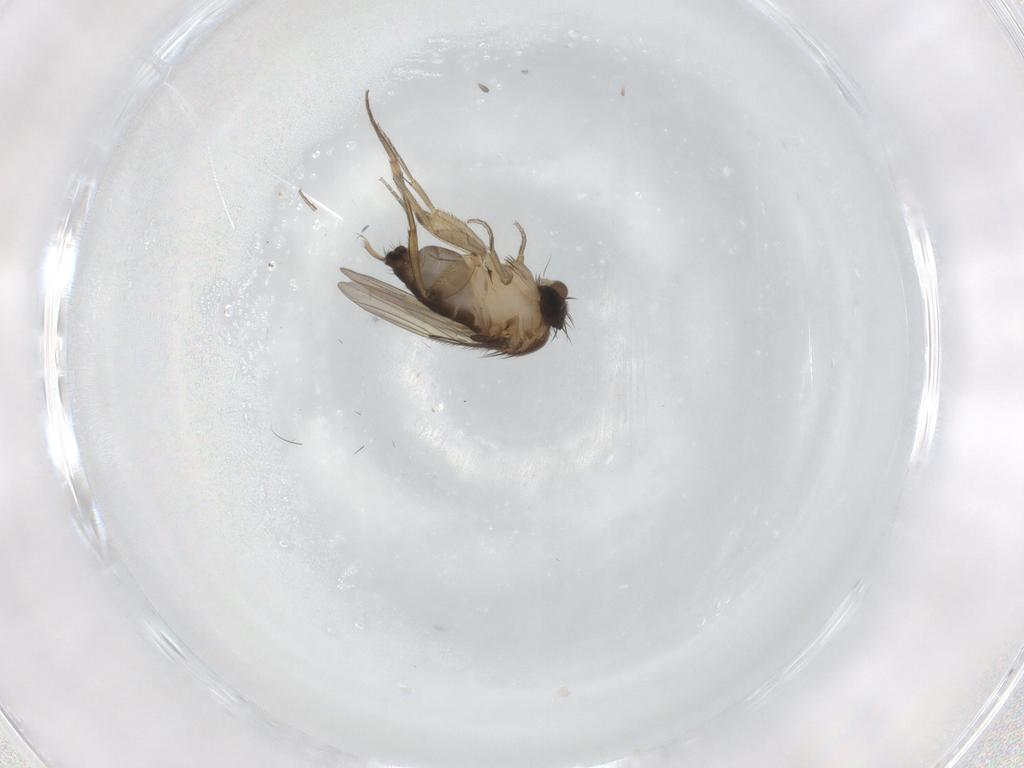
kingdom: Animalia
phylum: Arthropoda
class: Insecta
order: Diptera
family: Phoridae
